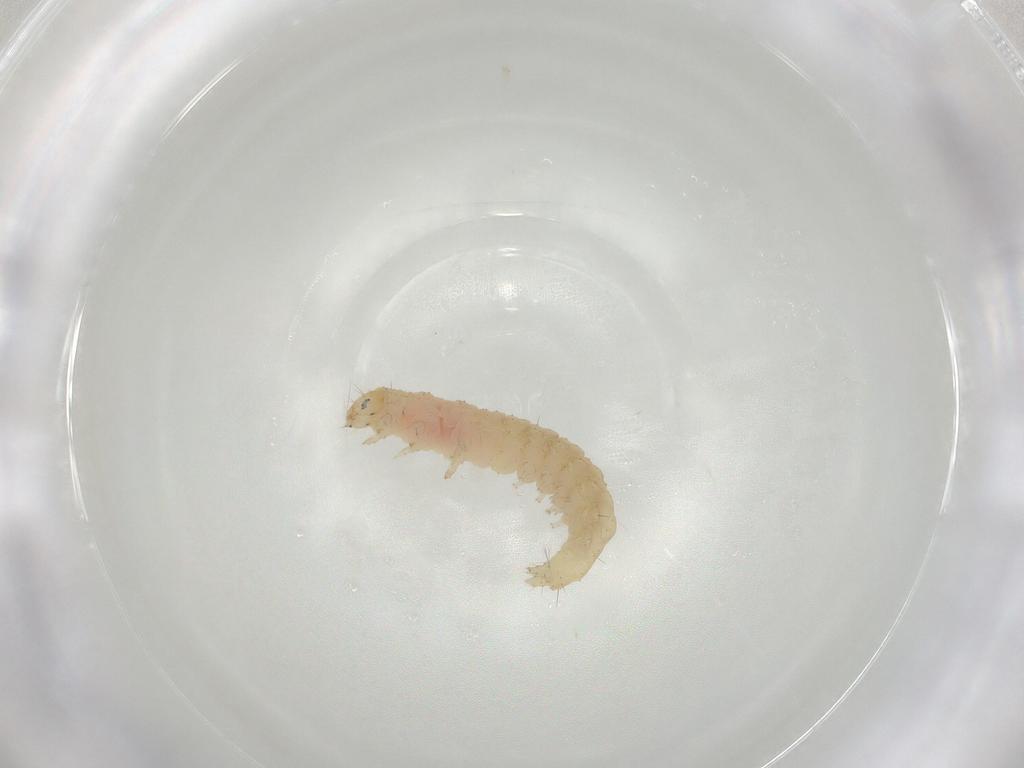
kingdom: Animalia
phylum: Arthropoda
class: Insecta
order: Lepidoptera
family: Gelechiidae
